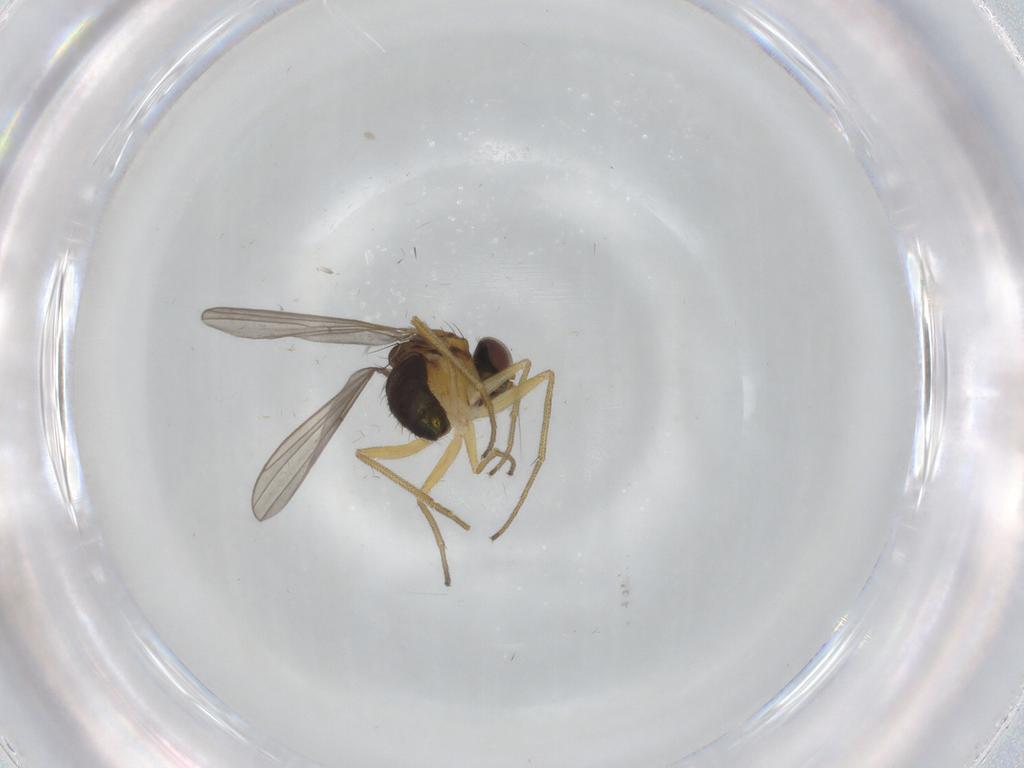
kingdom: Animalia
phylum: Arthropoda
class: Insecta
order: Diptera
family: Dolichopodidae
